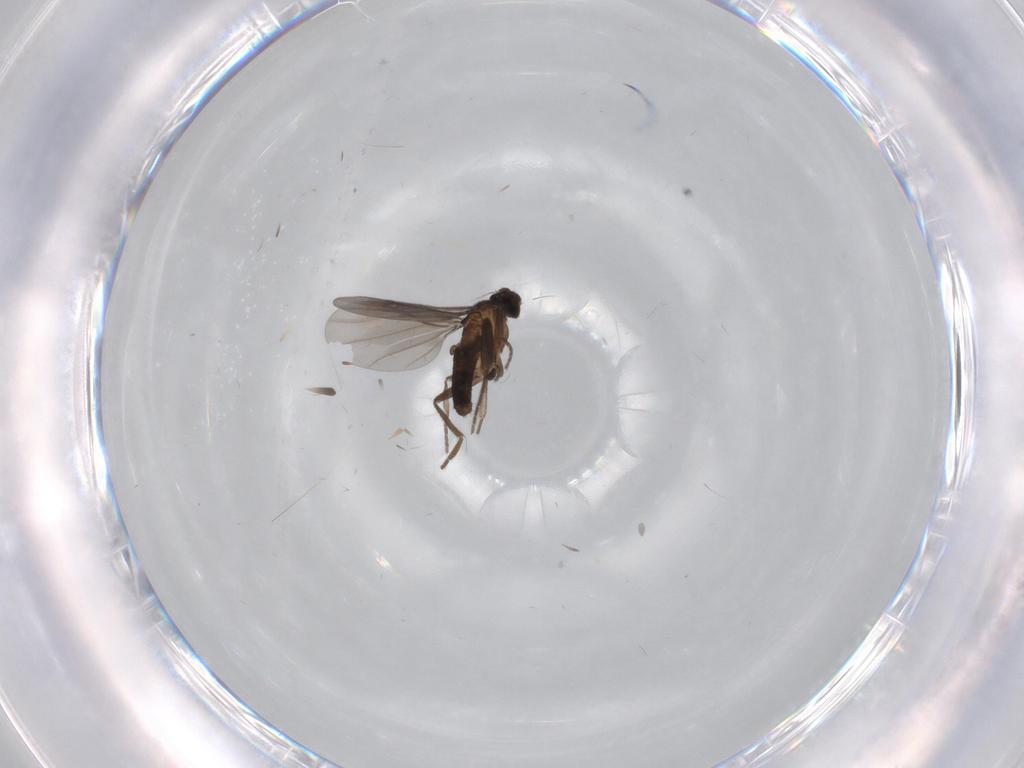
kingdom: Animalia
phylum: Arthropoda
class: Insecta
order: Diptera
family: Phoridae
